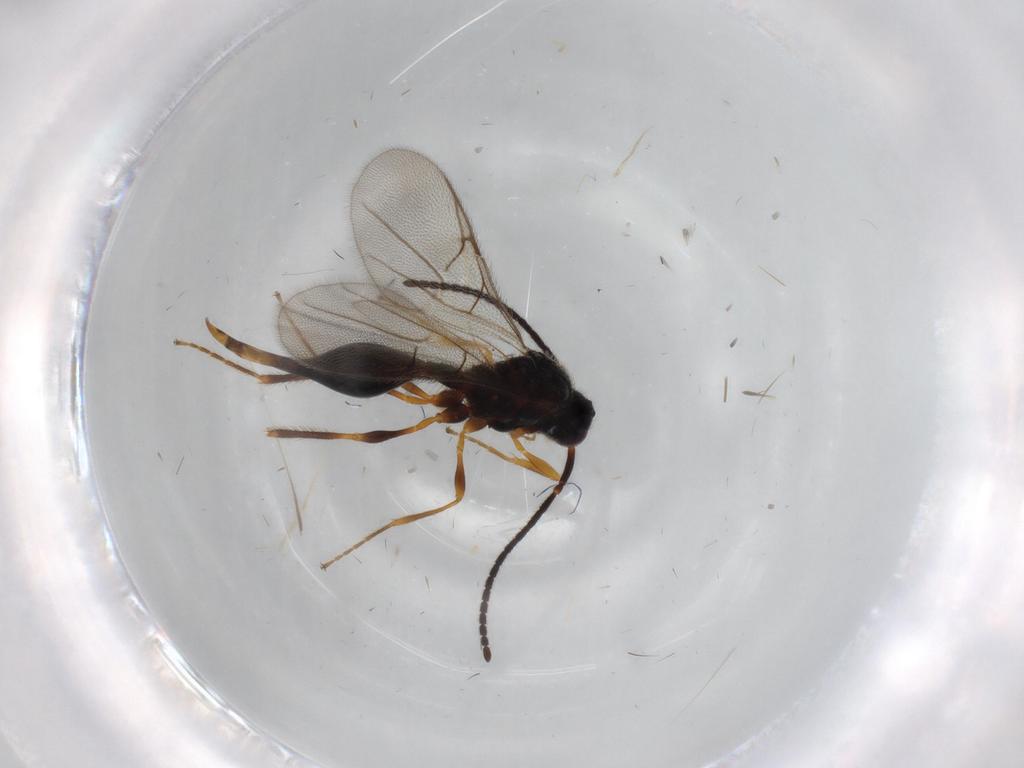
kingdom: Animalia
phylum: Arthropoda
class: Insecta
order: Hymenoptera
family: Diapriidae
